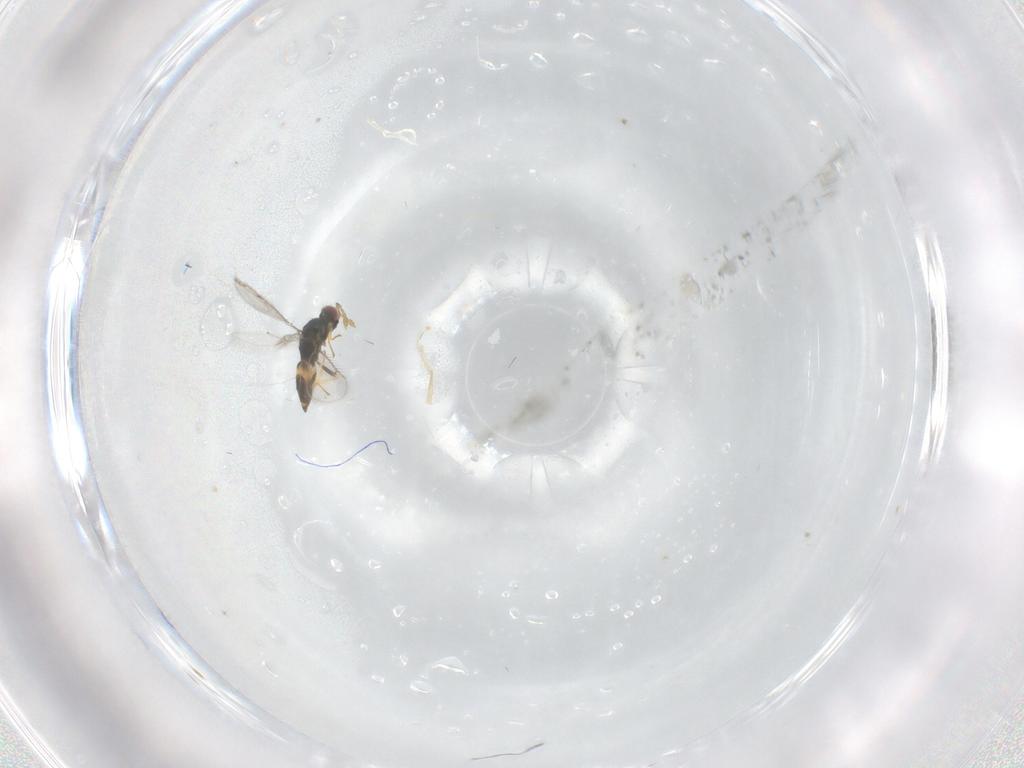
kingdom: Animalia
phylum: Arthropoda
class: Insecta
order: Hymenoptera
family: Eulophidae
